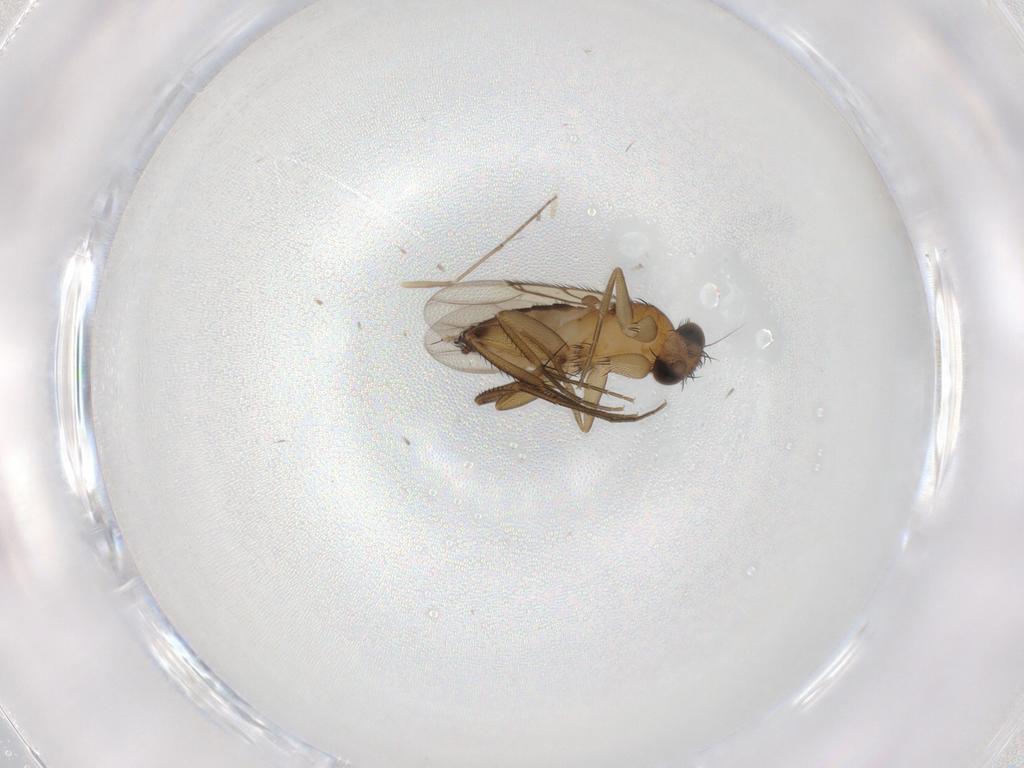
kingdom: Animalia
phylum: Arthropoda
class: Insecta
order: Diptera
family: Phoridae
